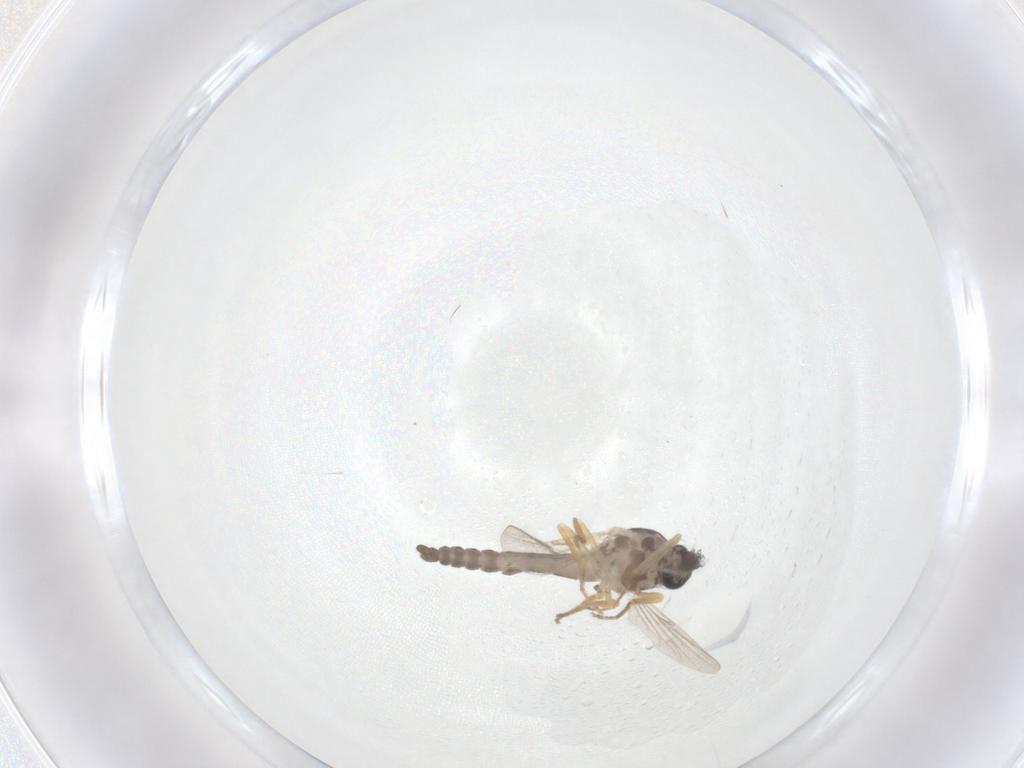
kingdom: Animalia
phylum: Arthropoda
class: Insecta
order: Diptera
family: Ceratopogonidae
